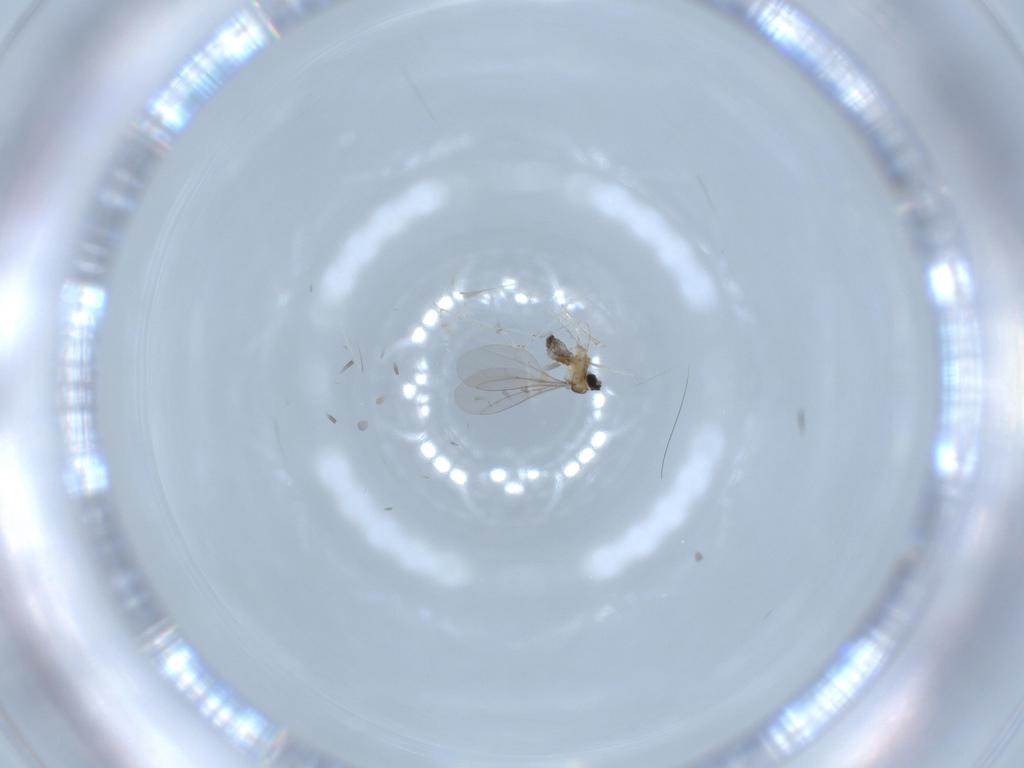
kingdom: Animalia
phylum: Arthropoda
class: Insecta
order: Diptera
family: Cecidomyiidae
